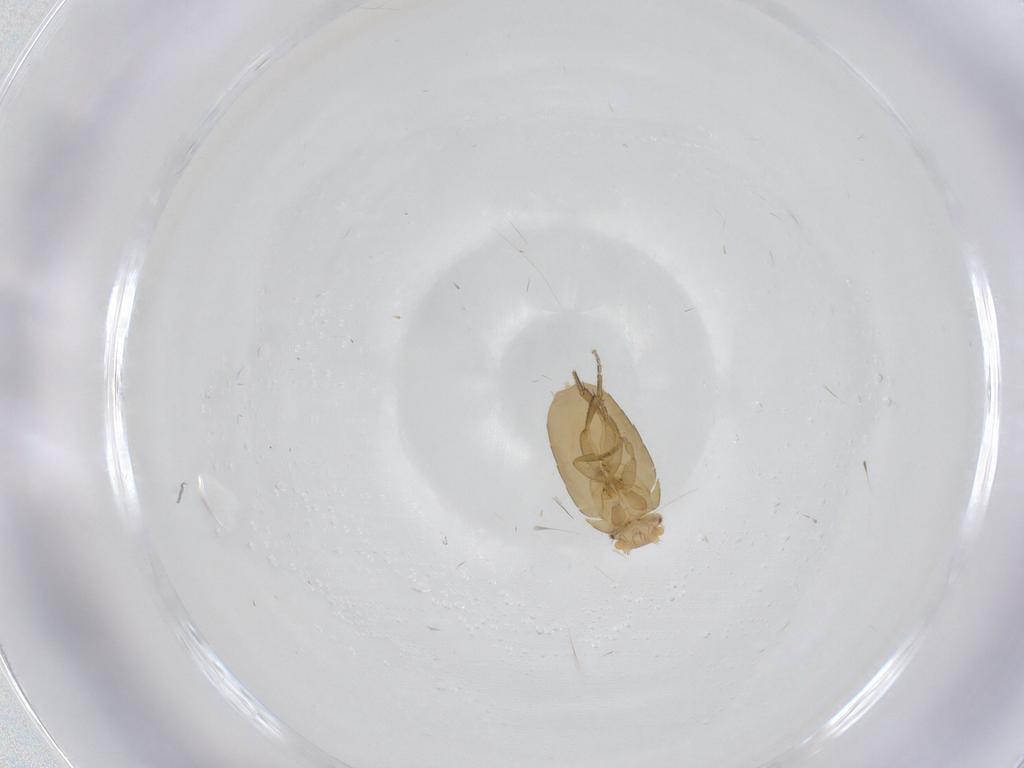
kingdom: Animalia
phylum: Arthropoda
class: Insecta
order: Diptera
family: Phoridae
